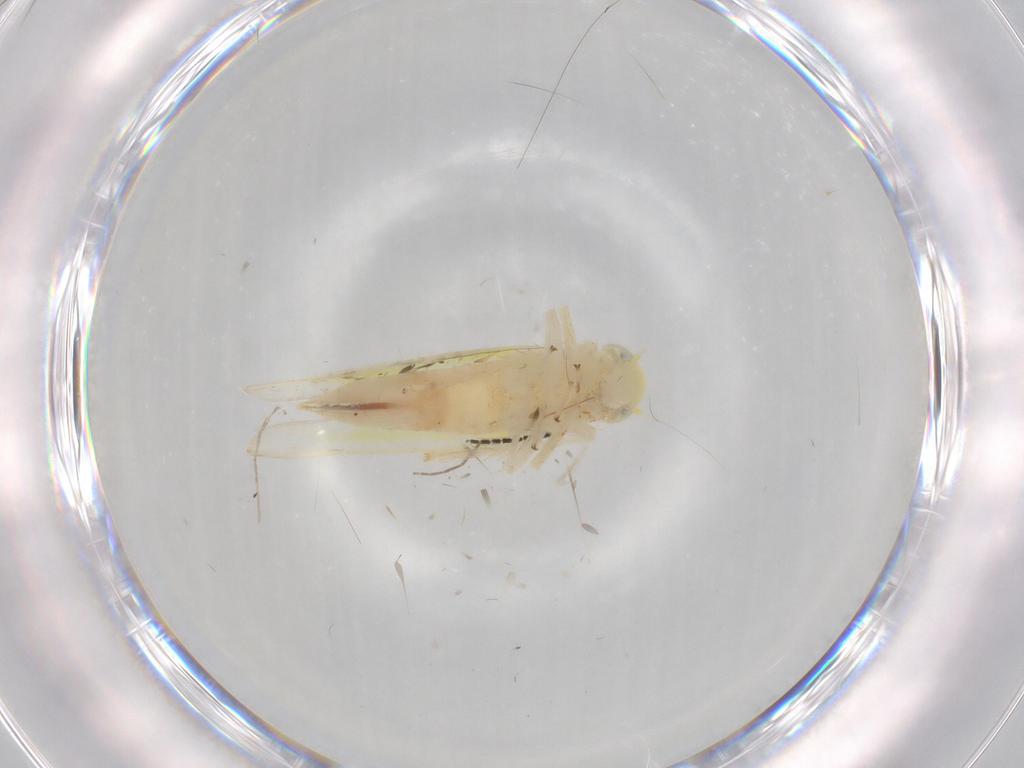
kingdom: Animalia
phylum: Arthropoda
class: Insecta
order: Hemiptera
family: Cicadellidae
